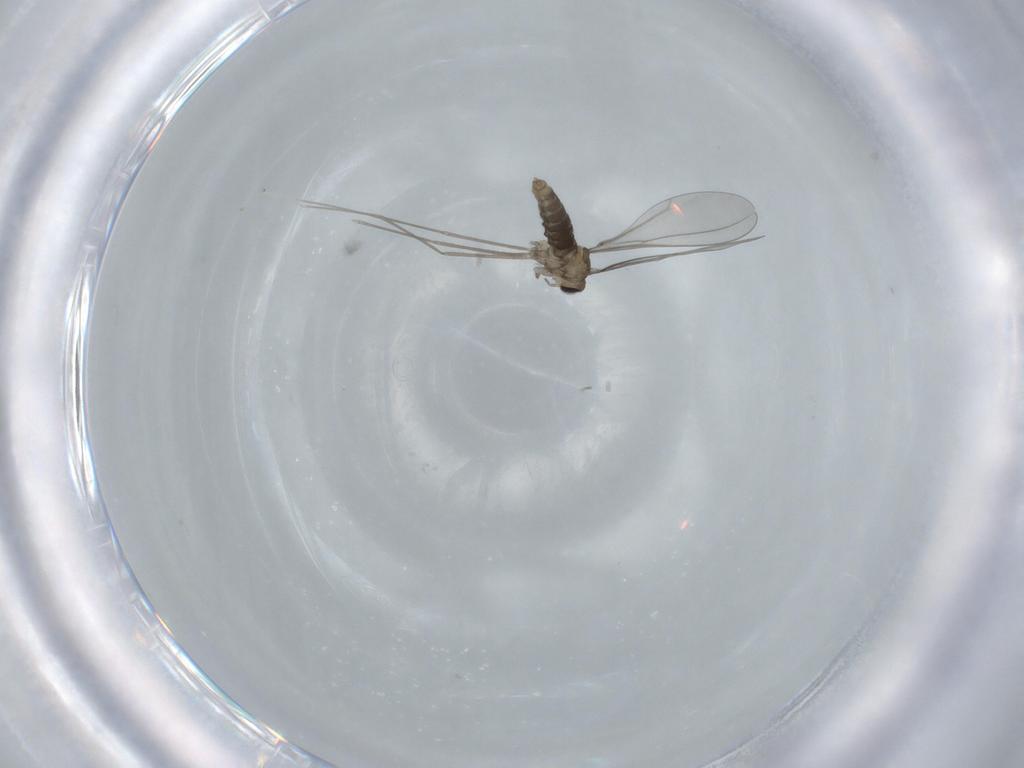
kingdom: Animalia
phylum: Arthropoda
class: Insecta
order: Diptera
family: Cecidomyiidae
